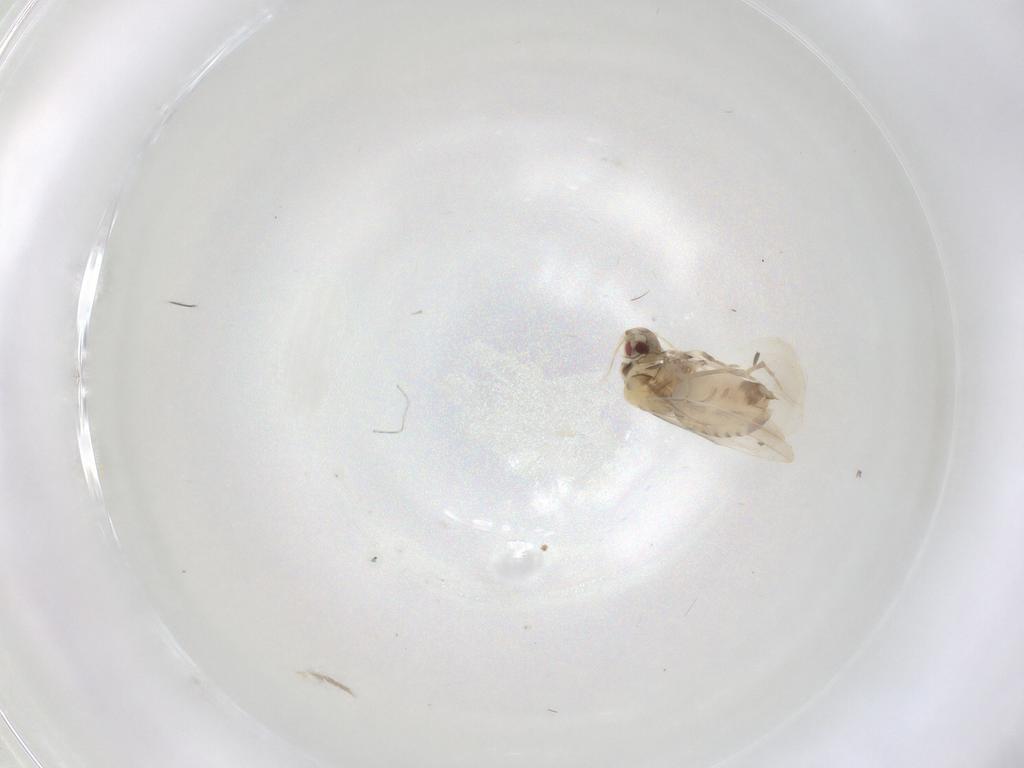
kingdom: Animalia
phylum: Arthropoda
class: Insecta
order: Hemiptera
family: Aleyrodidae
